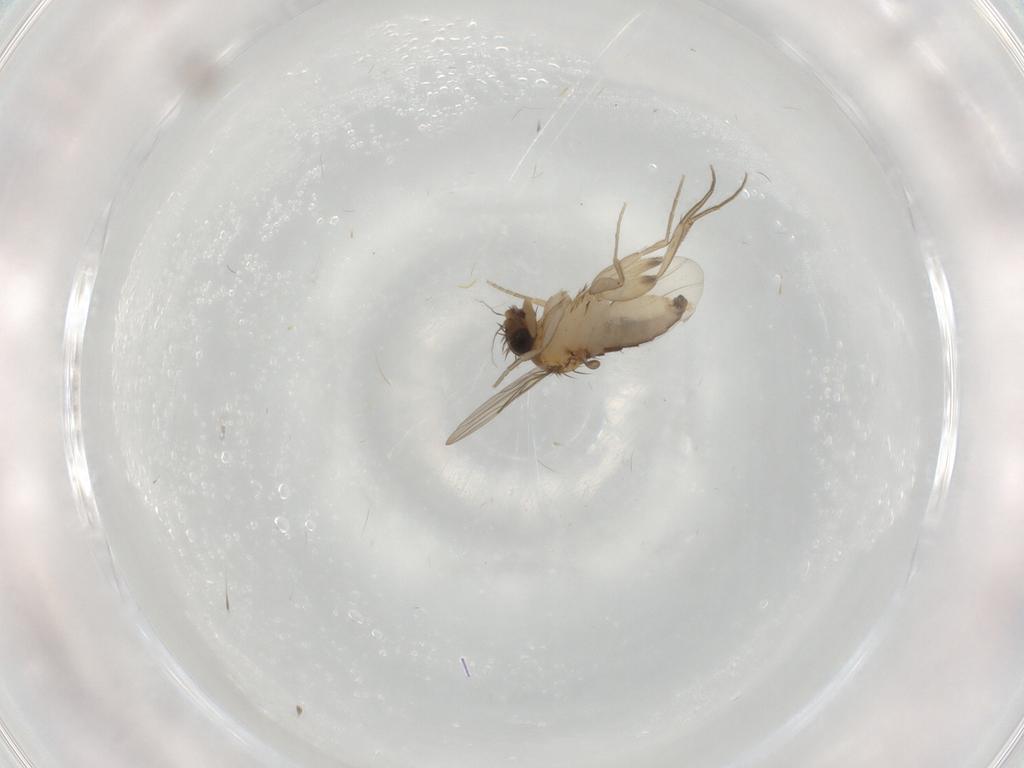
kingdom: Animalia
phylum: Arthropoda
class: Insecta
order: Diptera
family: Phoridae
